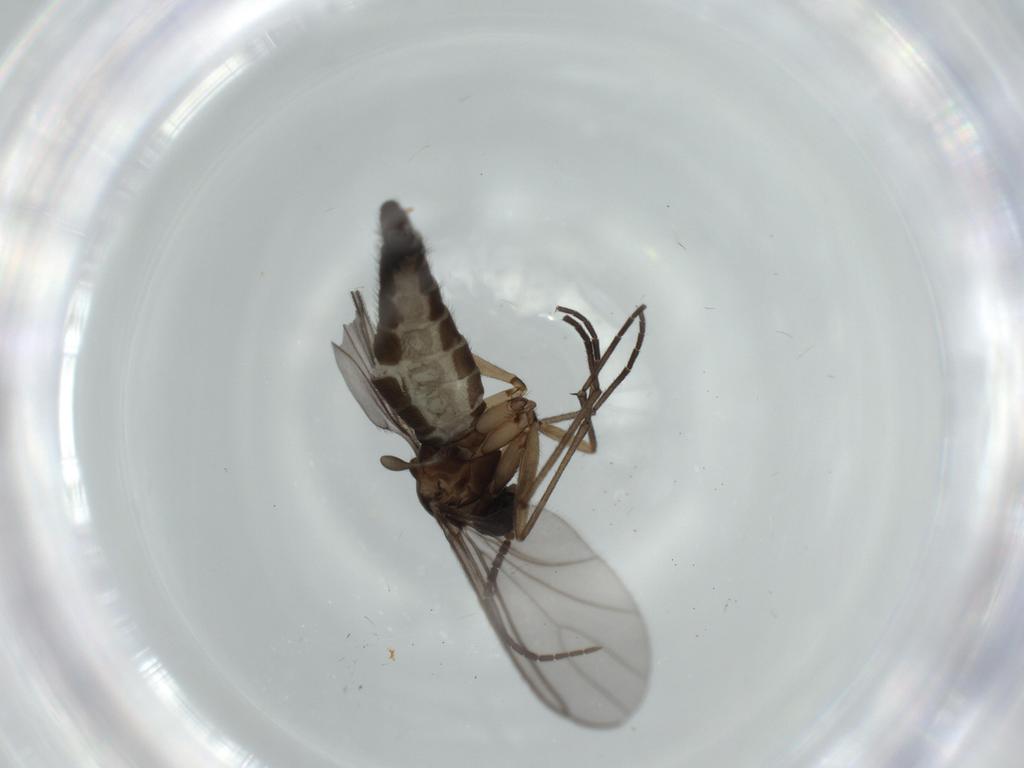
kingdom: Animalia
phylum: Arthropoda
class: Insecta
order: Diptera
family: Sciaridae
